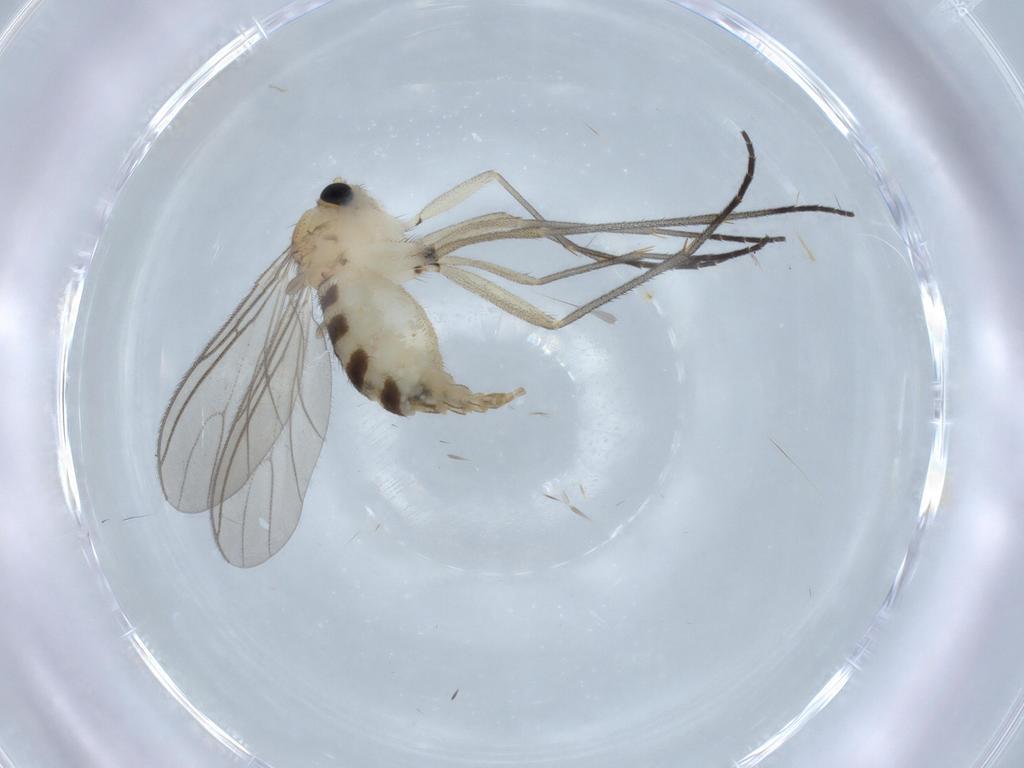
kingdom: Animalia
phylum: Arthropoda
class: Insecta
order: Diptera
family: Sciaridae
